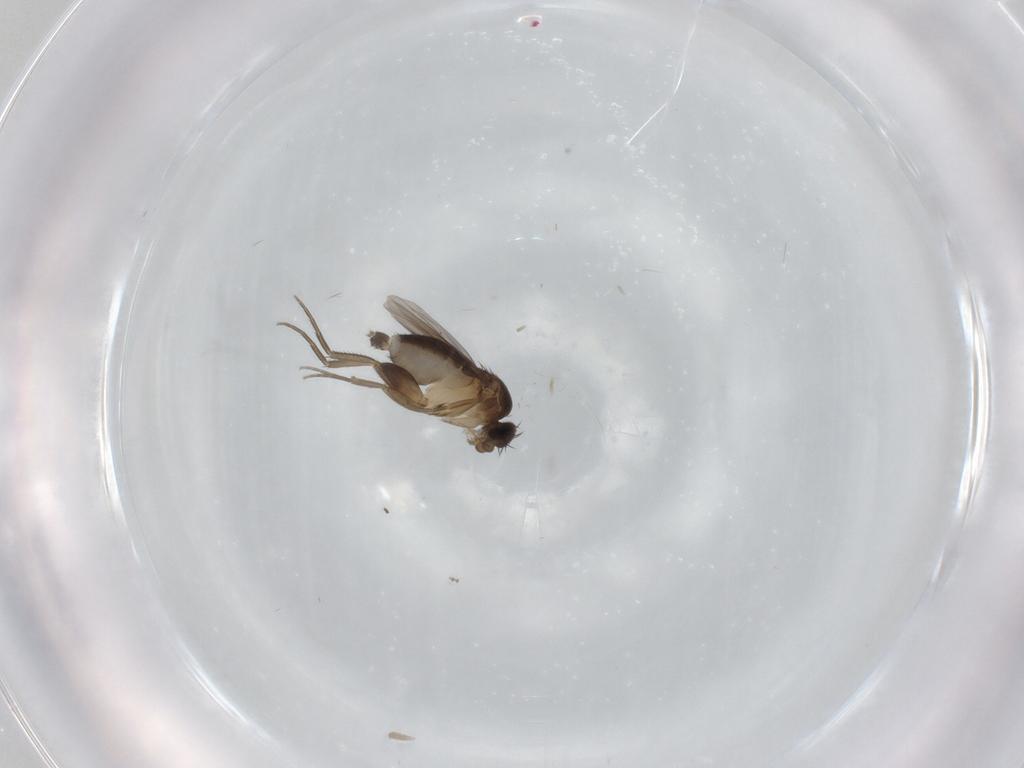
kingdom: Animalia
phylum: Arthropoda
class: Insecta
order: Diptera
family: Phoridae
